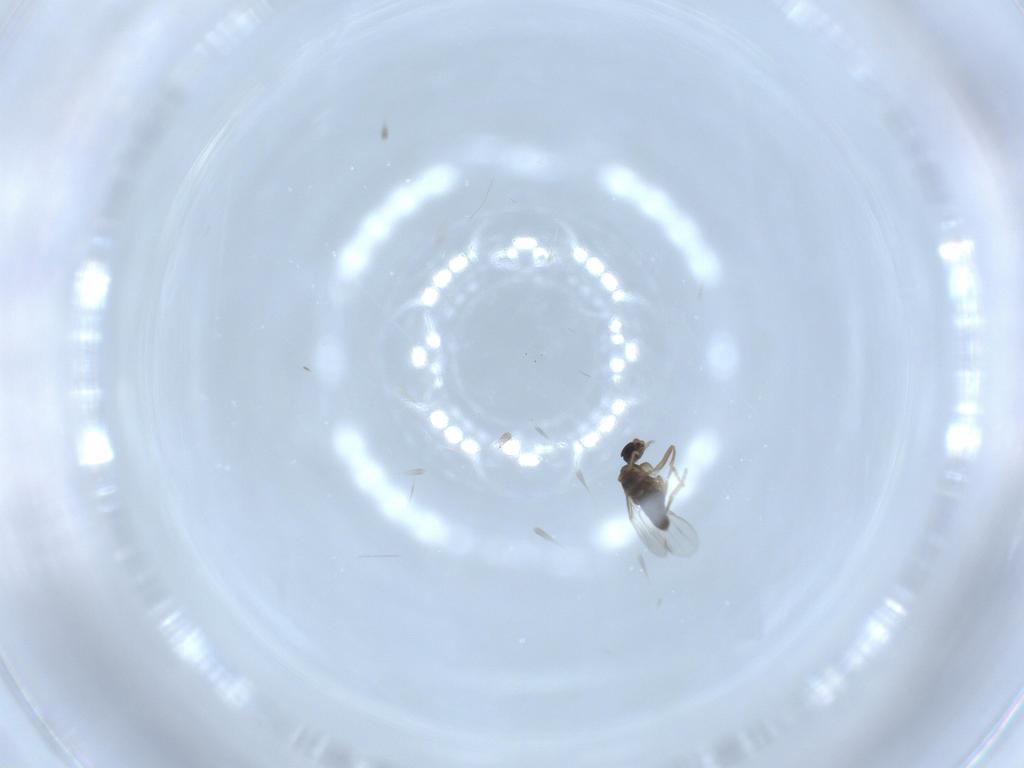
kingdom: Animalia
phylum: Arthropoda
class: Insecta
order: Diptera
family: Phoridae
